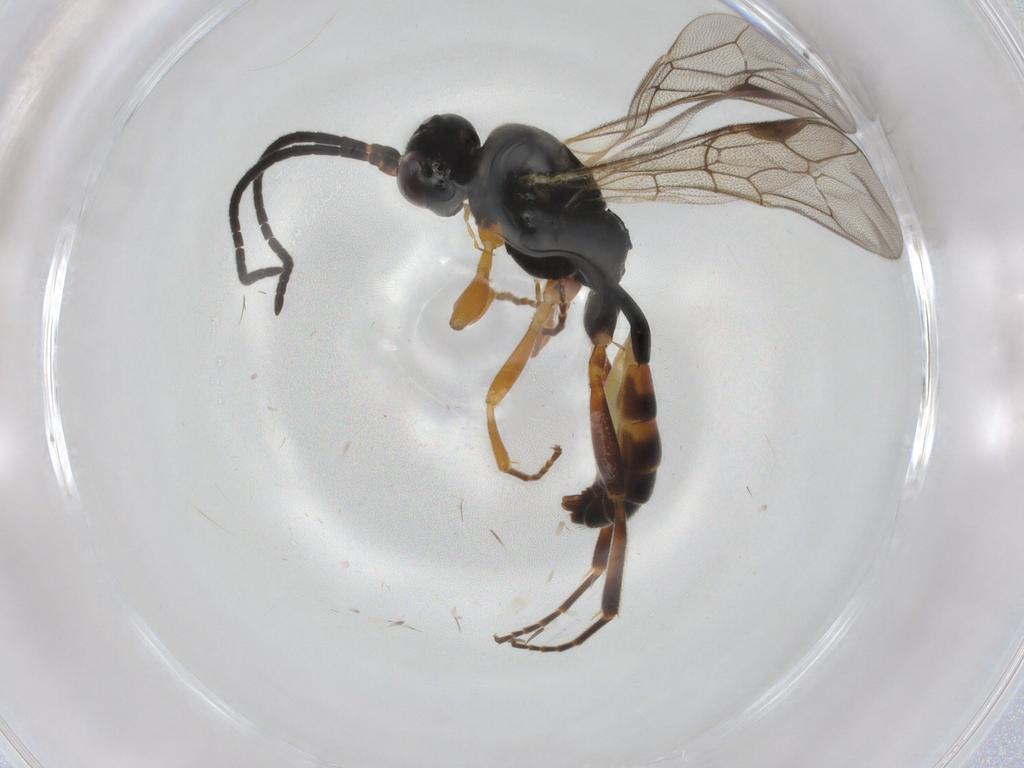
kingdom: Animalia
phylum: Arthropoda
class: Insecta
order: Hymenoptera
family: Ichneumonidae
